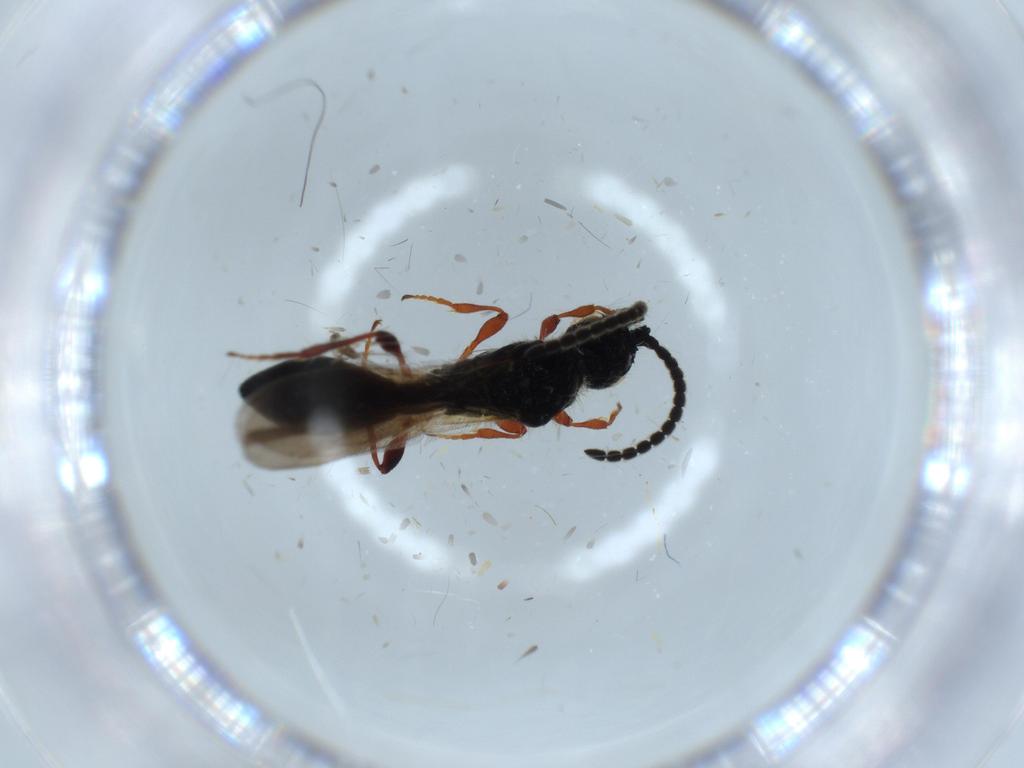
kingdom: Animalia
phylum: Arthropoda
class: Insecta
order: Hymenoptera
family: Diapriidae
